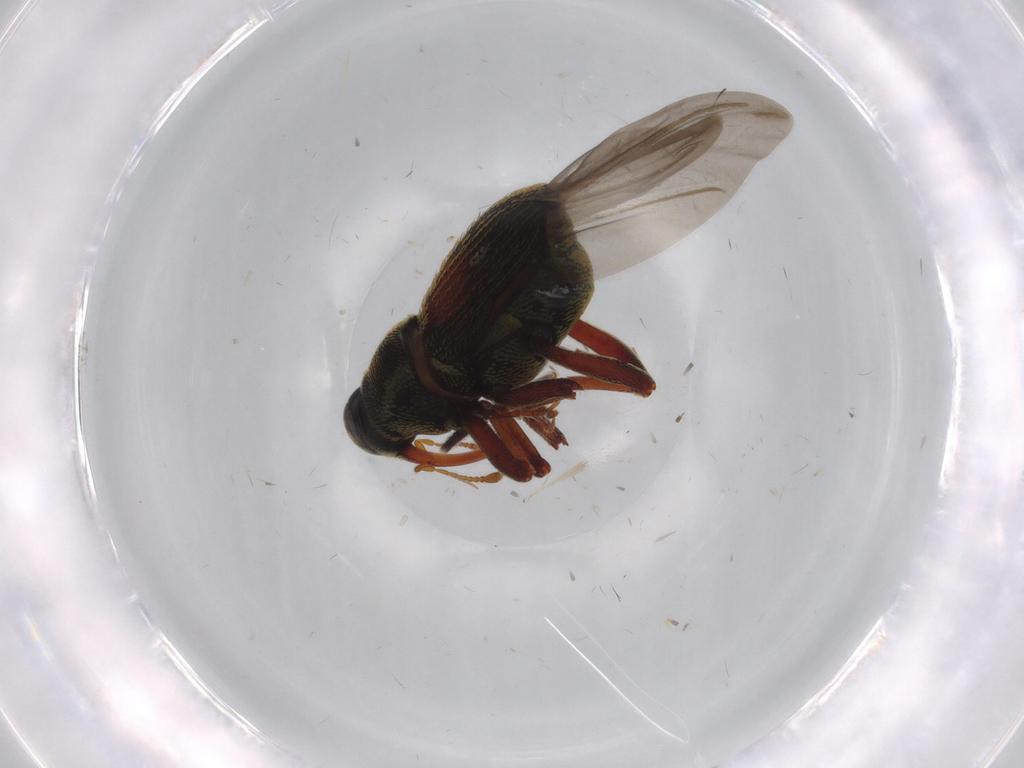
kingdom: Animalia
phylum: Arthropoda
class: Insecta
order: Coleoptera
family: Curculionidae
